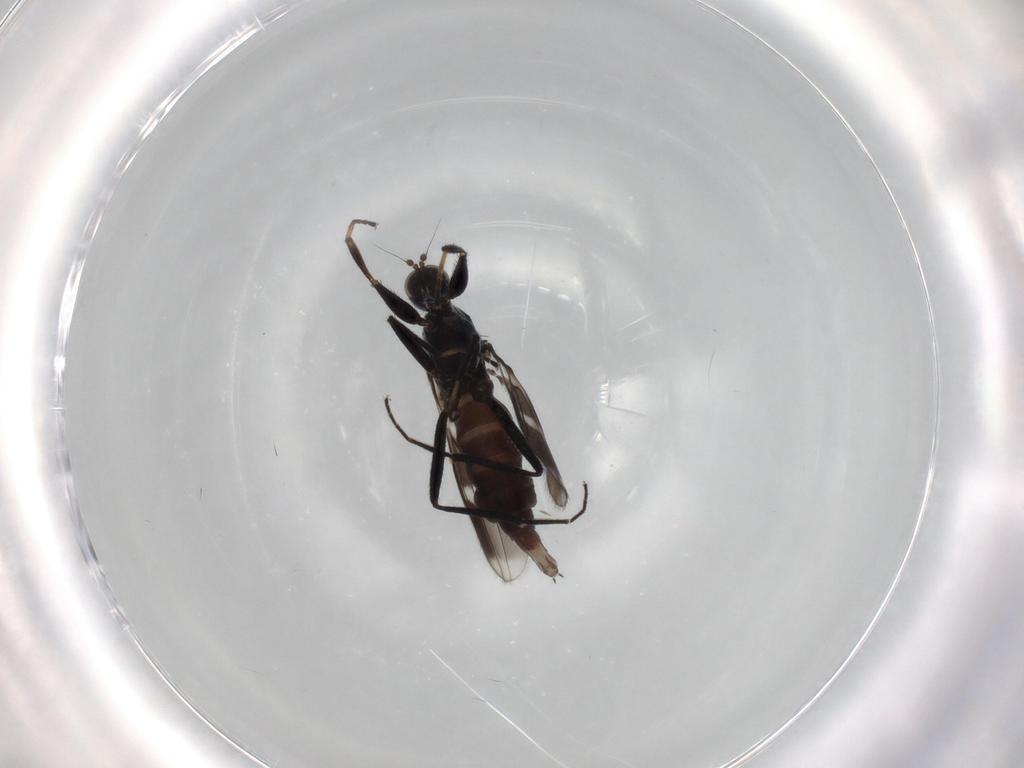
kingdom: Animalia
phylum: Arthropoda
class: Insecta
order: Diptera
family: Hybotidae
